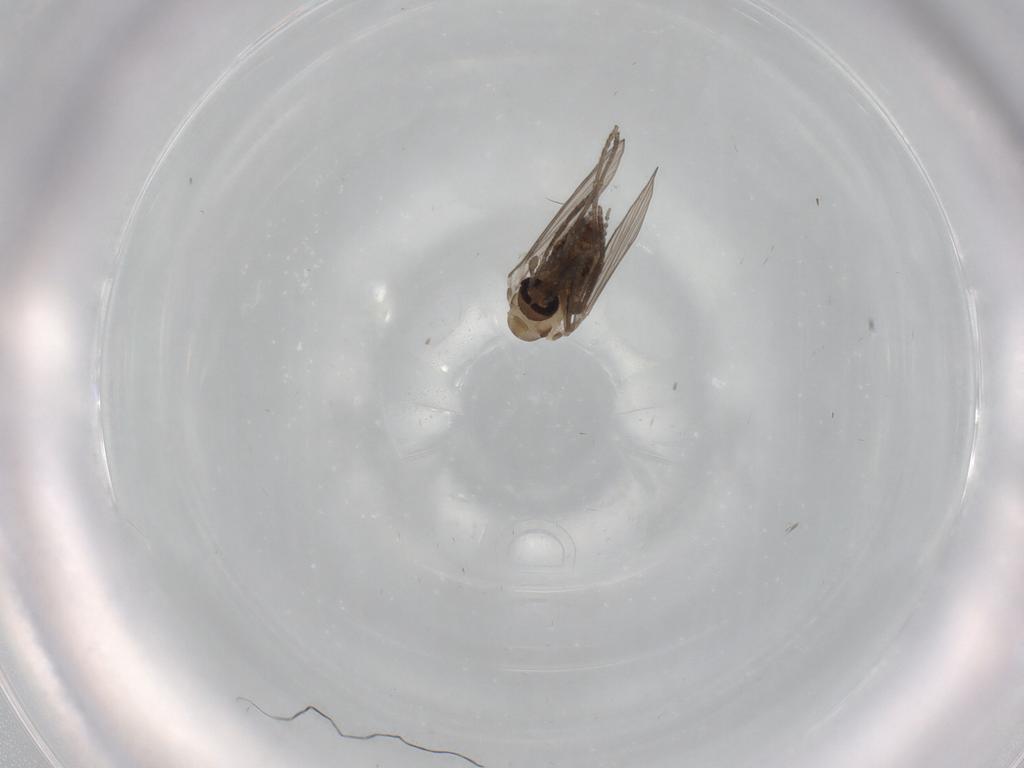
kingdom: Animalia
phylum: Arthropoda
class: Insecta
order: Diptera
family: Psychodidae
